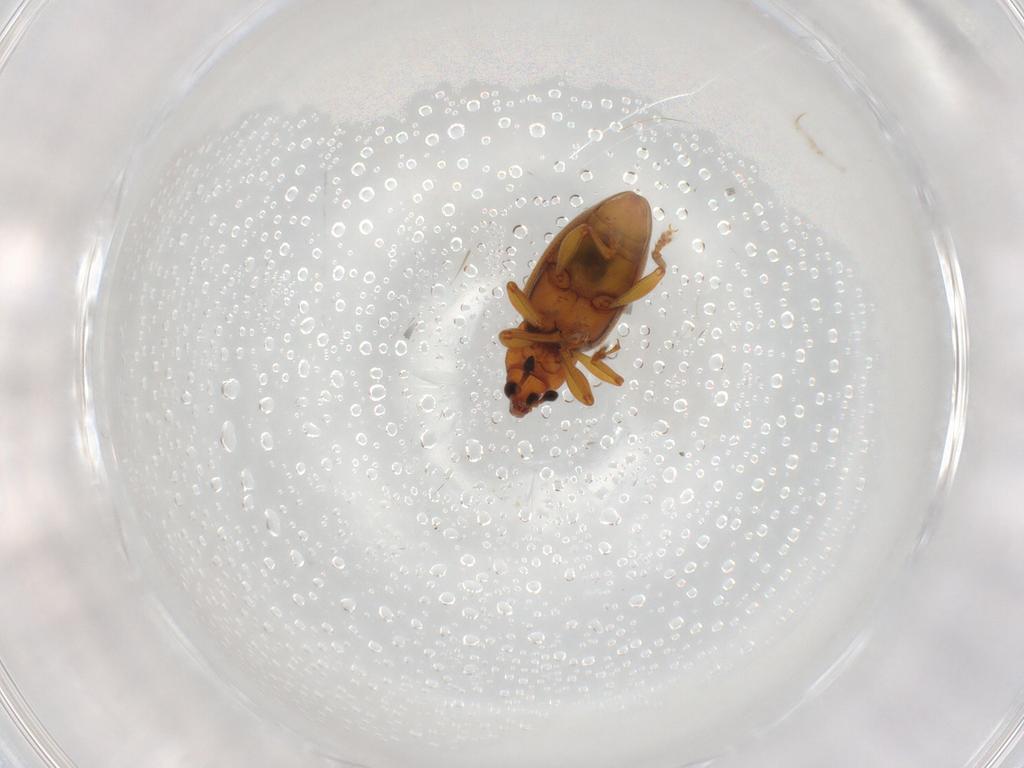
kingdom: Animalia
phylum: Arthropoda
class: Insecta
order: Coleoptera
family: Curculionidae
